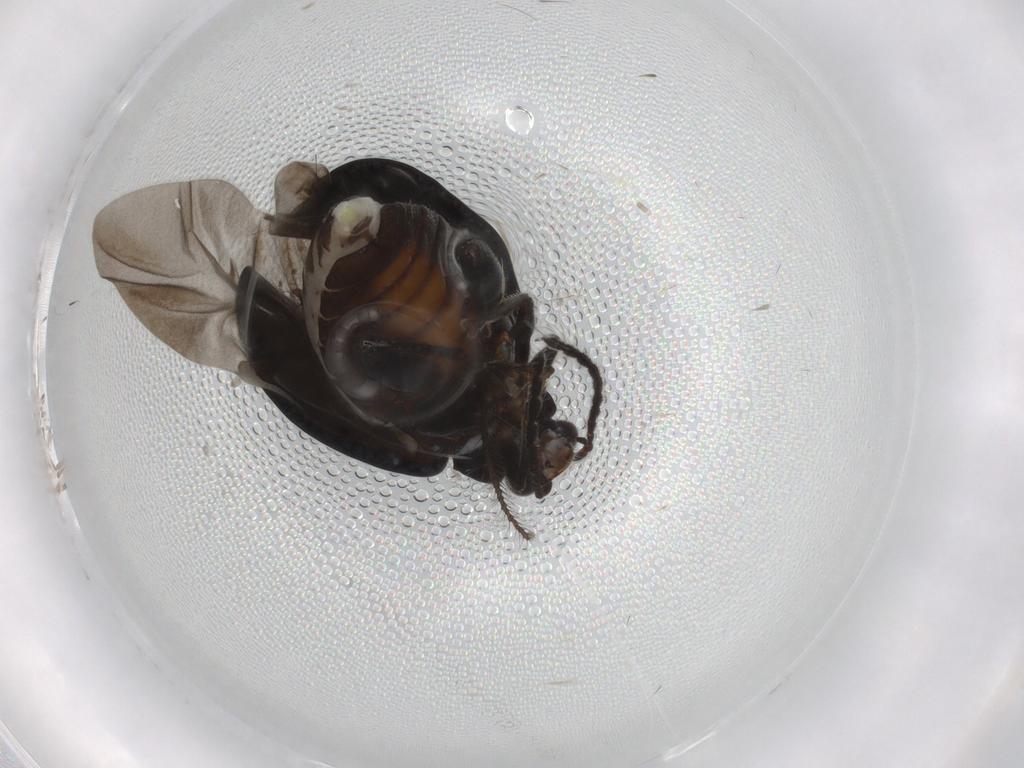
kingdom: Animalia
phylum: Arthropoda
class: Insecta
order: Coleoptera
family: Chrysomelidae
